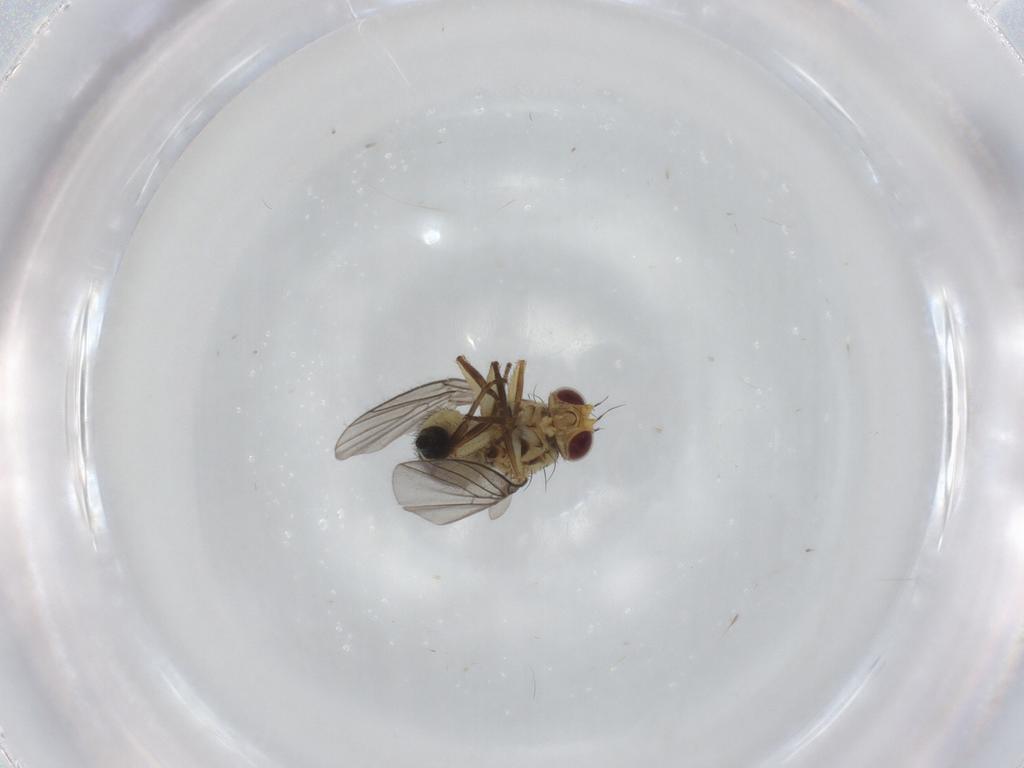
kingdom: Animalia
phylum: Arthropoda
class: Insecta
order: Diptera
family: Agromyzidae
